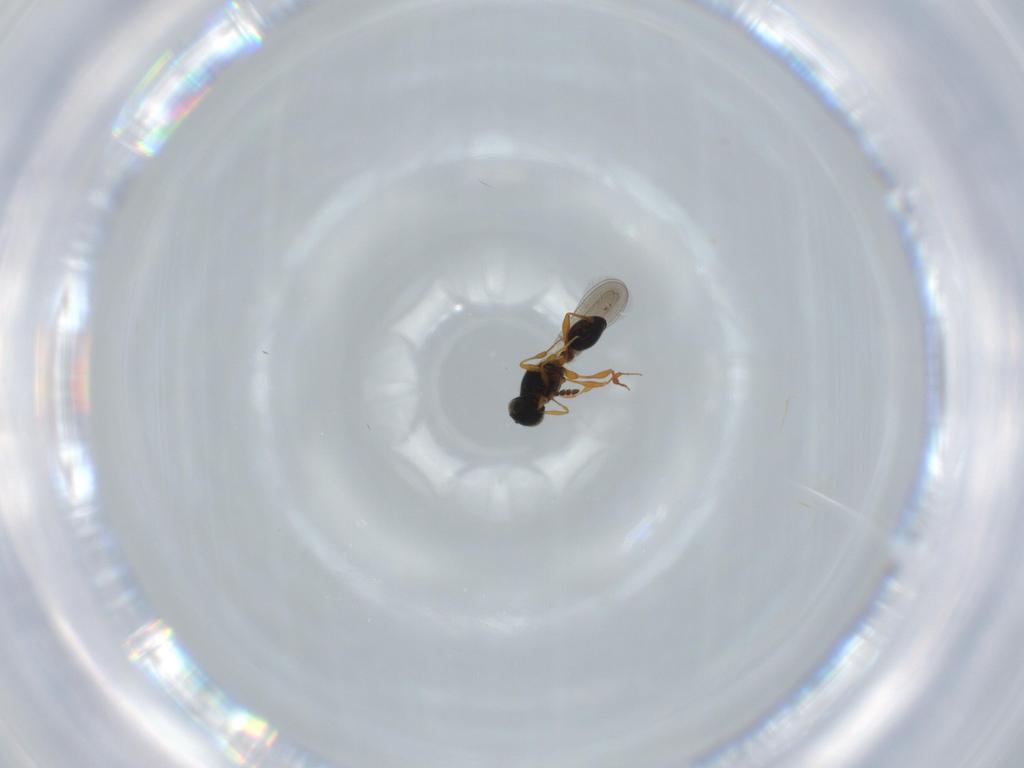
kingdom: Animalia
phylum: Arthropoda
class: Insecta
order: Hymenoptera
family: Platygastridae
